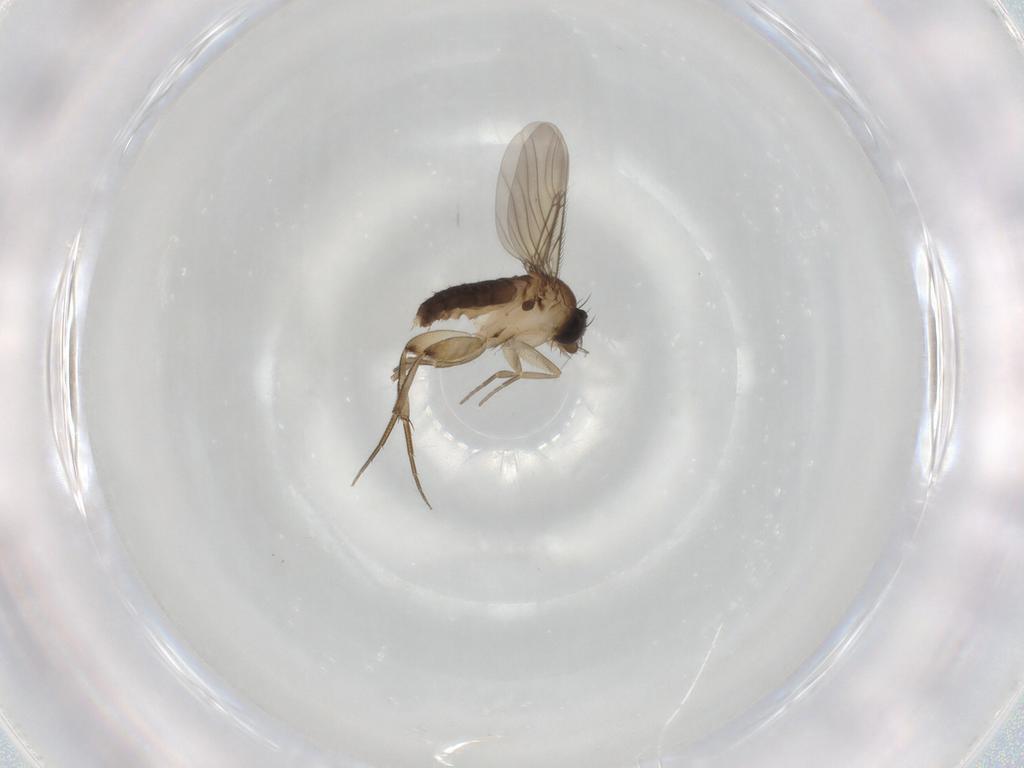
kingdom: Animalia
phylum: Arthropoda
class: Insecta
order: Diptera
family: Phoridae
